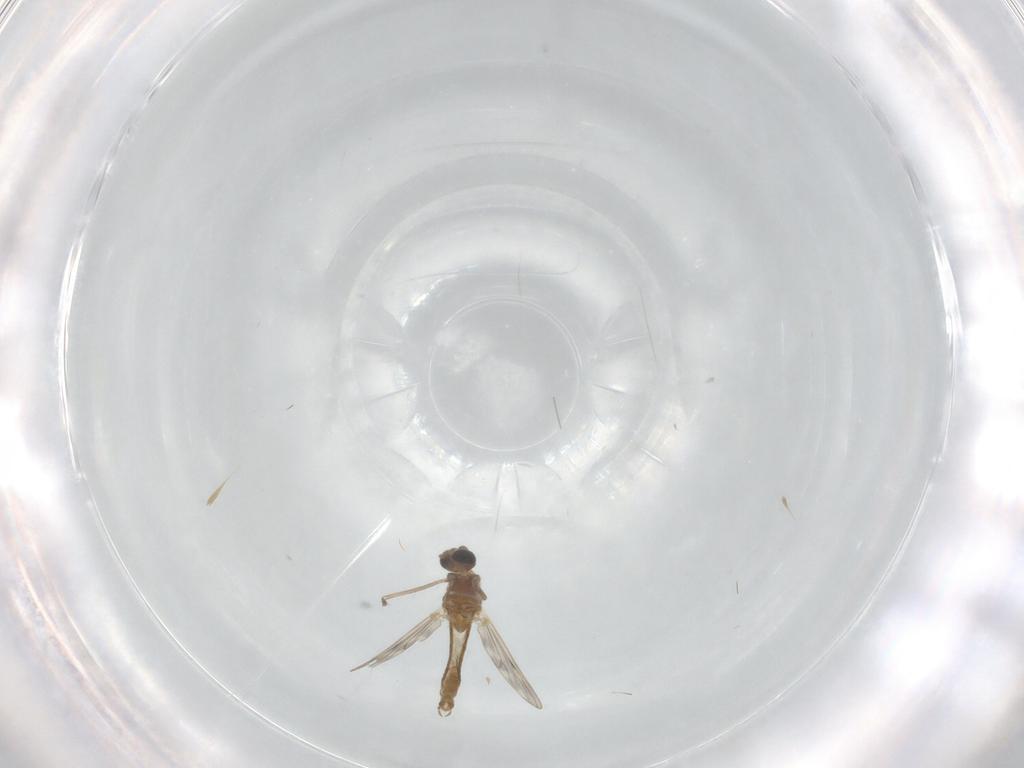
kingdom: Animalia
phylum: Arthropoda
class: Insecta
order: Diptera
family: Chironomidae
